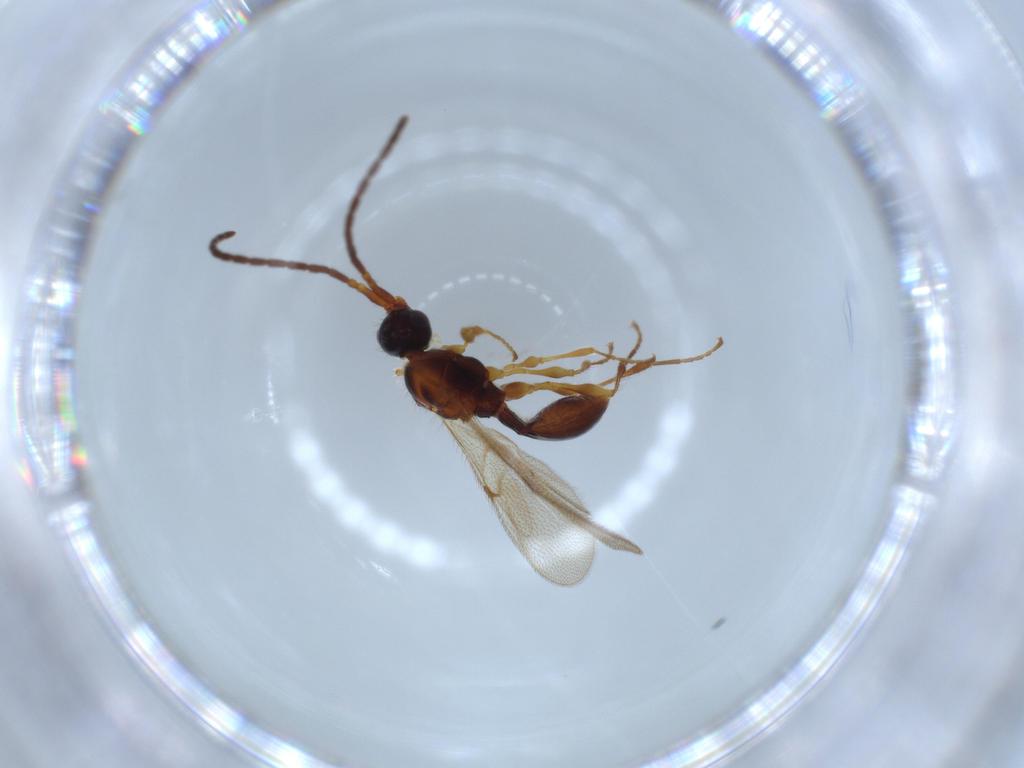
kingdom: Animalia
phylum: Arthropoda
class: Insecta
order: Hymenoptera
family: Diapriidae
